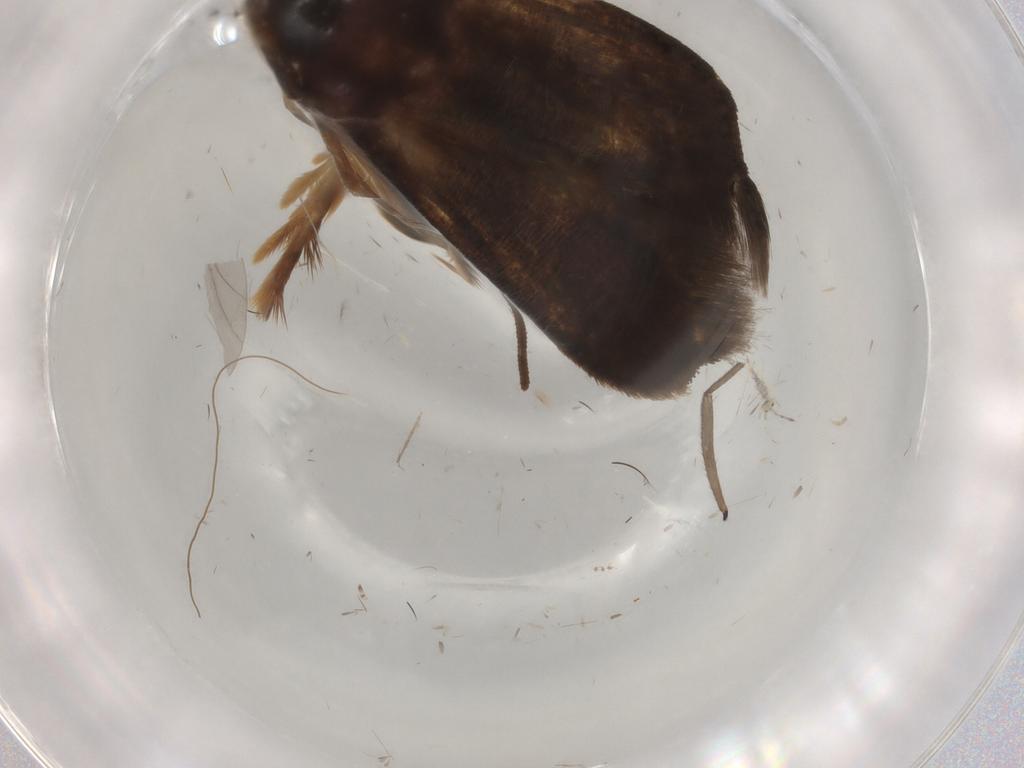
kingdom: Animalia
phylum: Arthropoda
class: Insecta
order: Lepidoptera
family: Tineidae
